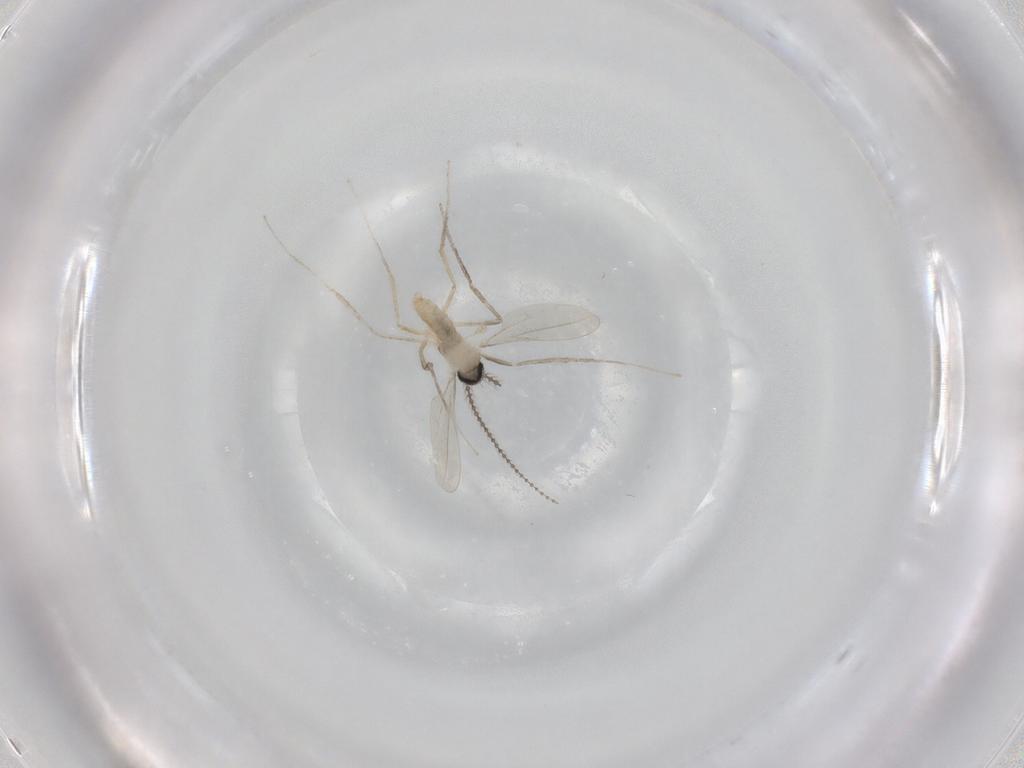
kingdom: Animalia
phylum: Arthropoda
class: Insecta
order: Diptera
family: Cecidomyiidae
